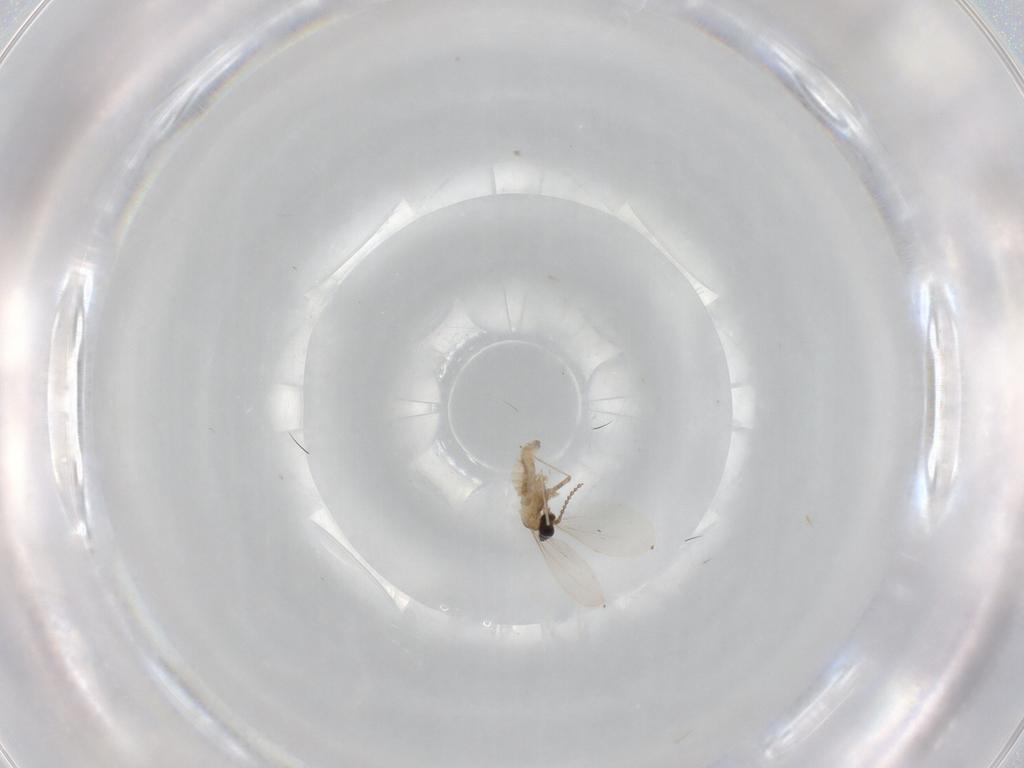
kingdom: Animalia
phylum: Arthropoda
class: Insecta
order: Diptera
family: Cecidomyiidae
